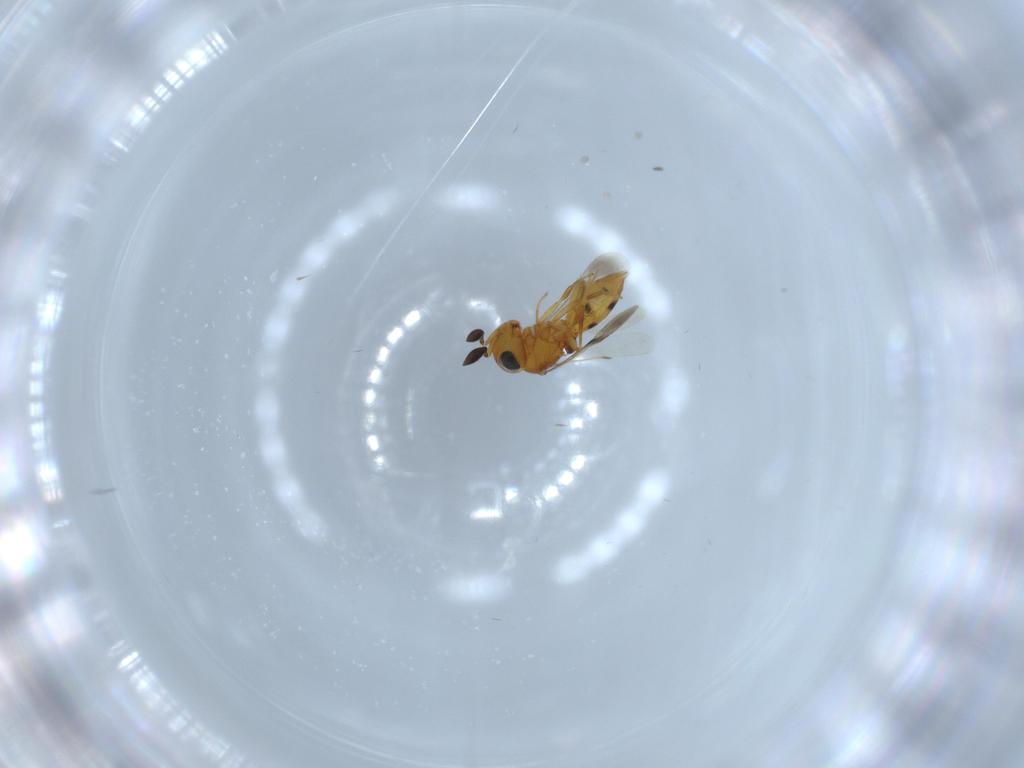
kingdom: Animalia
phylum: Arthropoda
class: Insecta
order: Hymenoptera
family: Scelionidae
